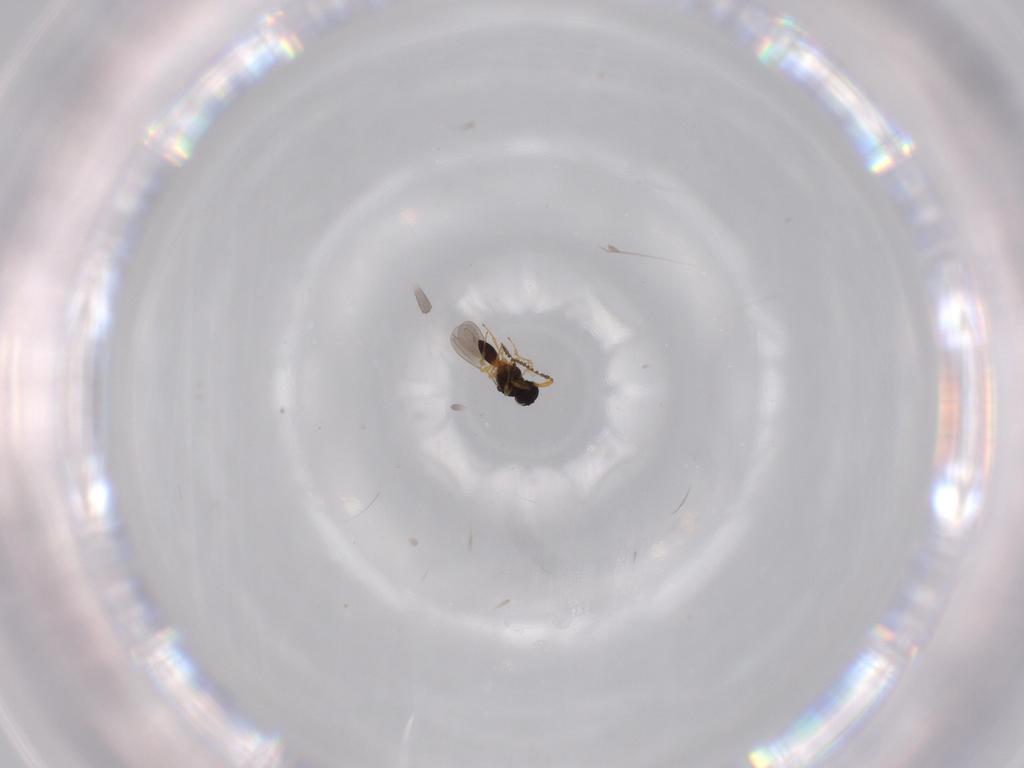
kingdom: Animalia
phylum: Arthropoda
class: Insecta
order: Hymenoptera
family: Platygastridae
